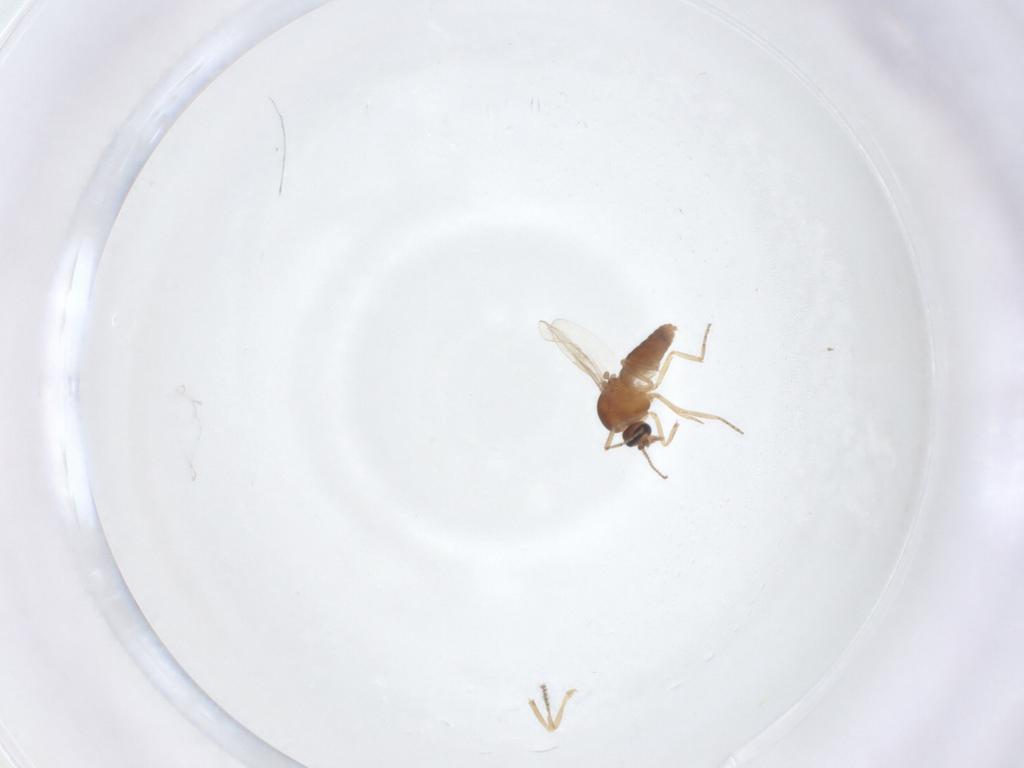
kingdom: Animalia
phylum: Arthropoda
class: Insecta
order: Diptera
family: Ceratopogonidae
